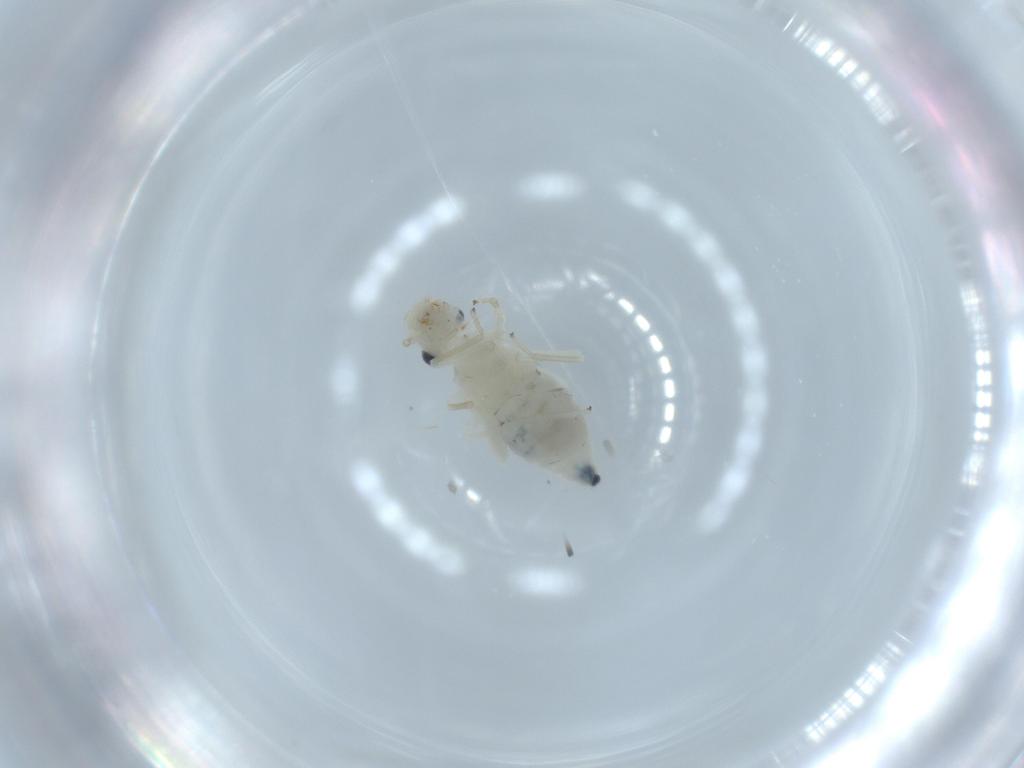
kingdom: Animalia
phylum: Arthropoda
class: Insecta
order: Psocodea
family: Caeciliusidae
